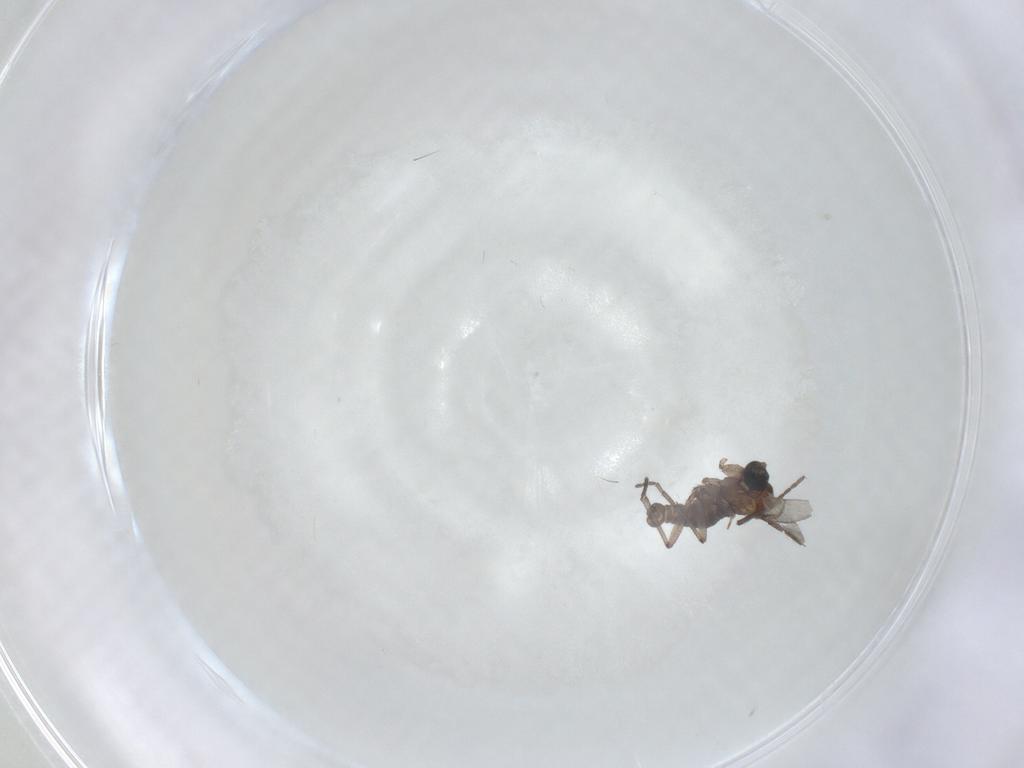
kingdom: Animalia
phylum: Arthropoda
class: Insecta
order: Diptera
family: Sciaridae
